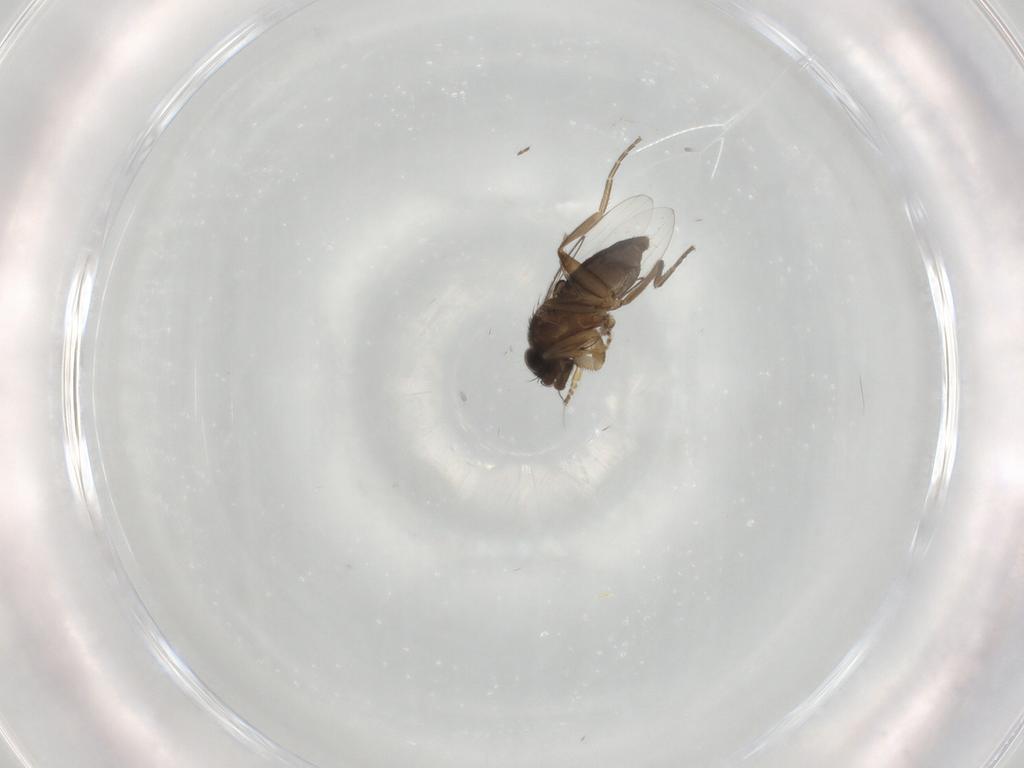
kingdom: Animalia
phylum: Arthropoda
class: Insecta
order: Diptera
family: Phoridae
